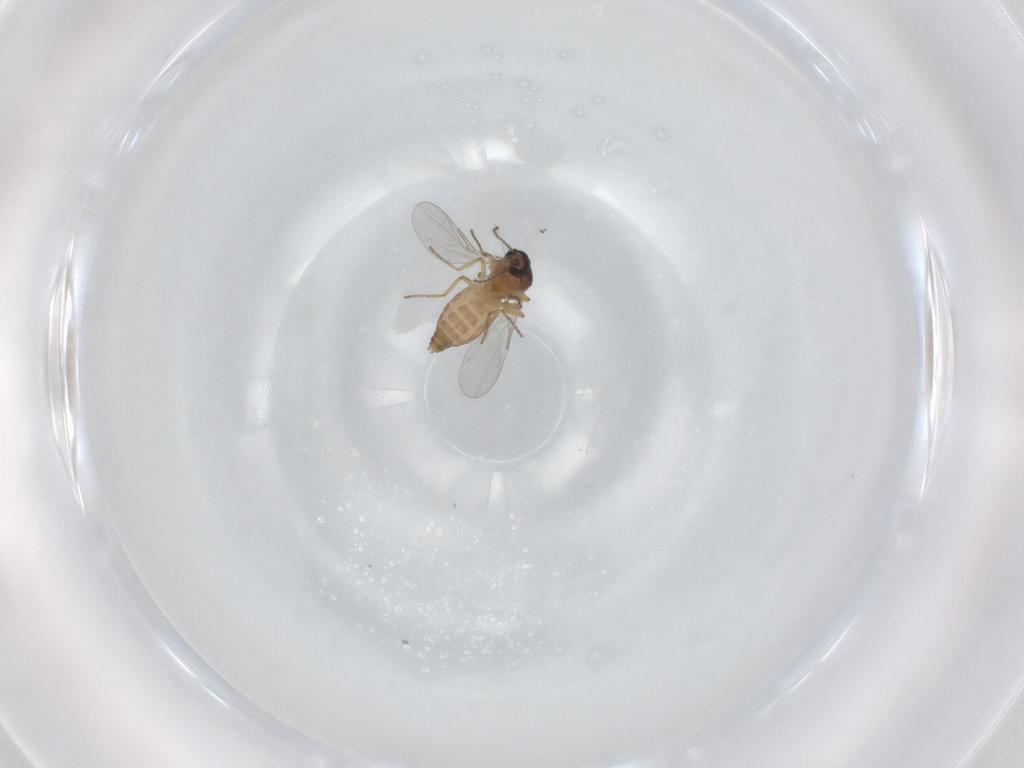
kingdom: Animalia
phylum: Arthropoda
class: Insecta
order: Diptera
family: Ceratopogonidae
